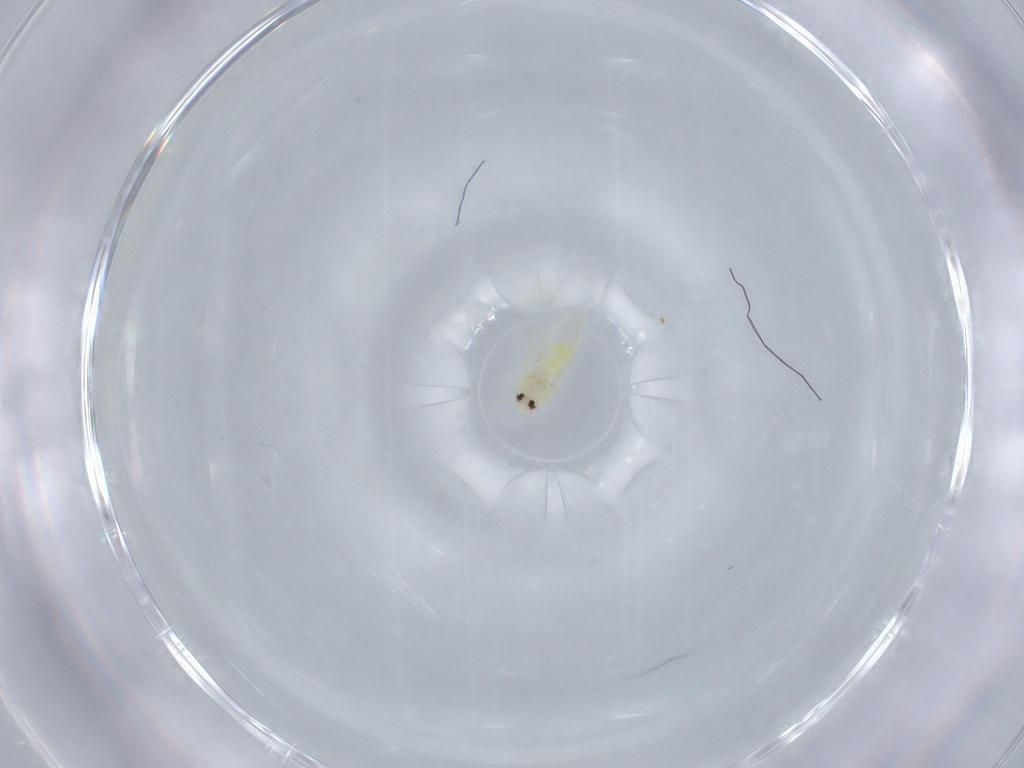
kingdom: Animalia
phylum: Arthropoda
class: Insecta
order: Hemiptera
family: Aleyrodidae
